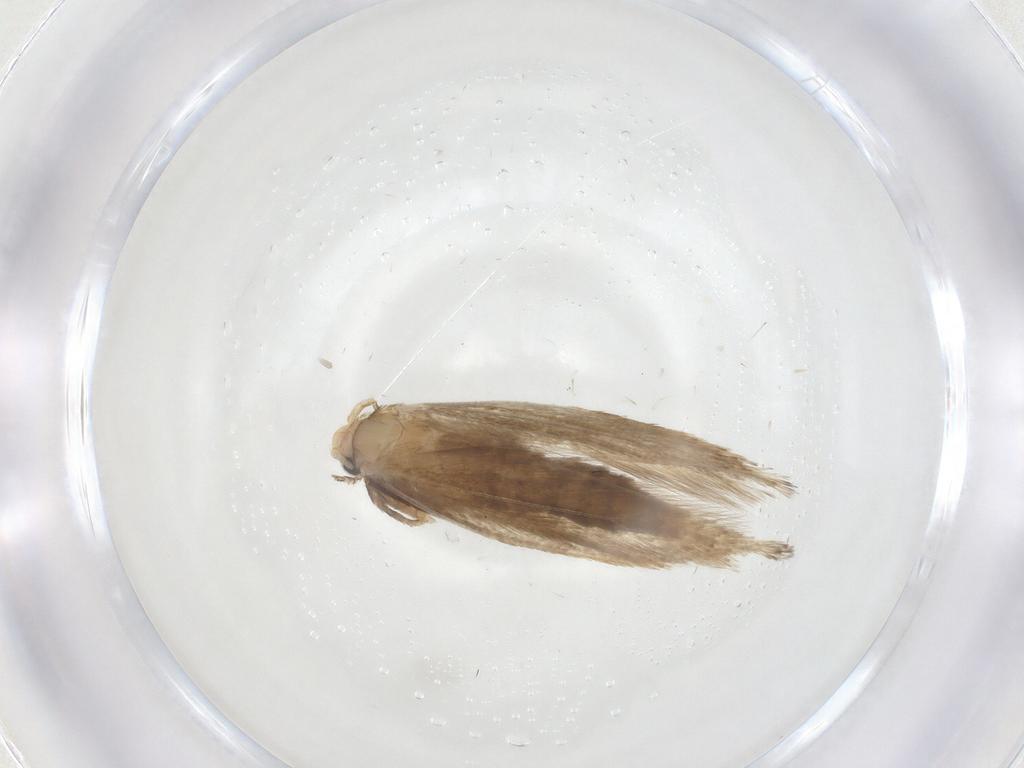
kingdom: Animalia
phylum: Arthropoda
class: Insecta
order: Lepidoptera
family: Tineidae
